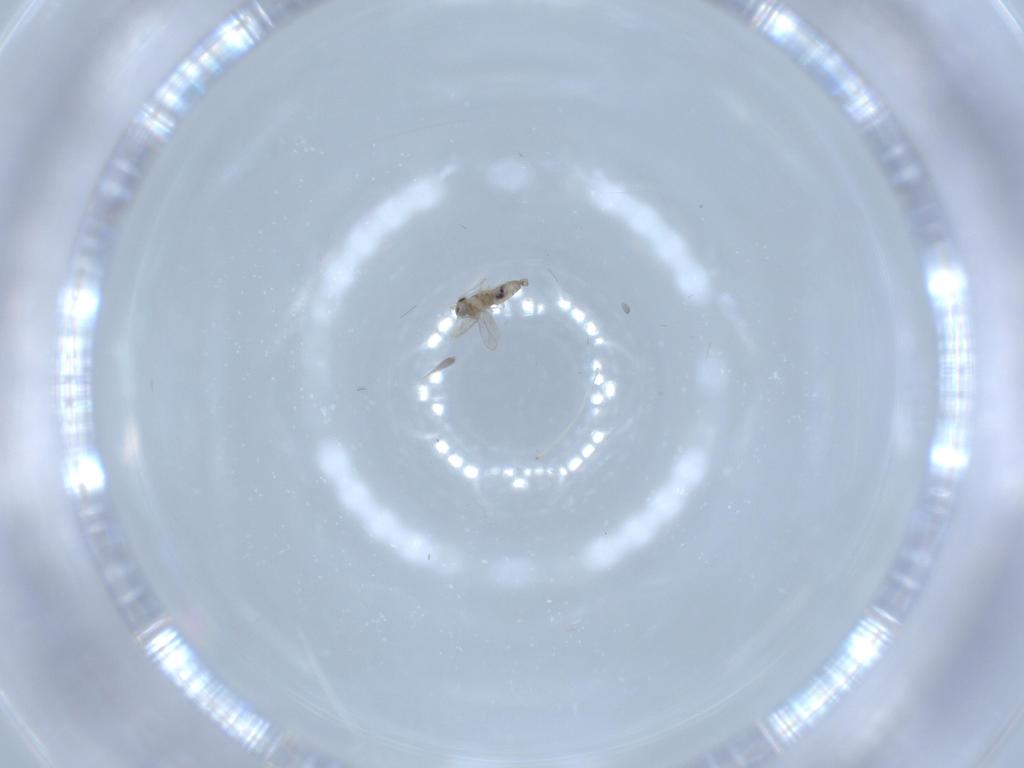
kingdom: Animalia
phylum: Arthropoda
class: Insecta
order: Diptera
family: Cecidomyiidae
